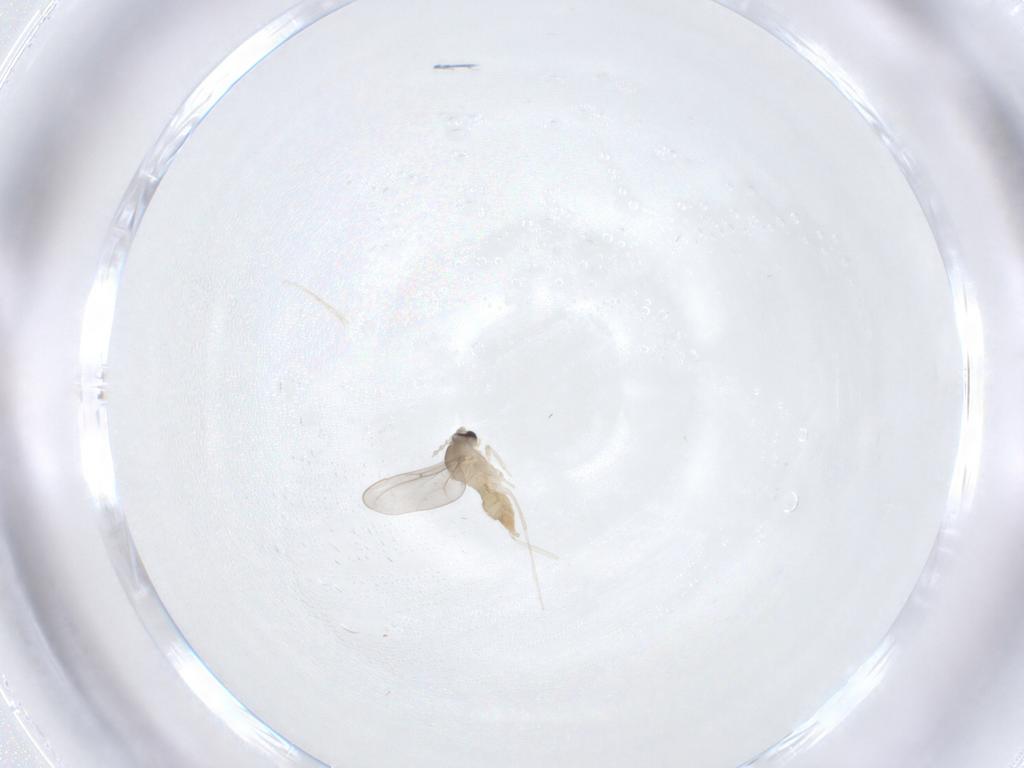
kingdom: Animalia
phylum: Arthropoda
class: Insecta
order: Diptera
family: Cecidomyiidae
